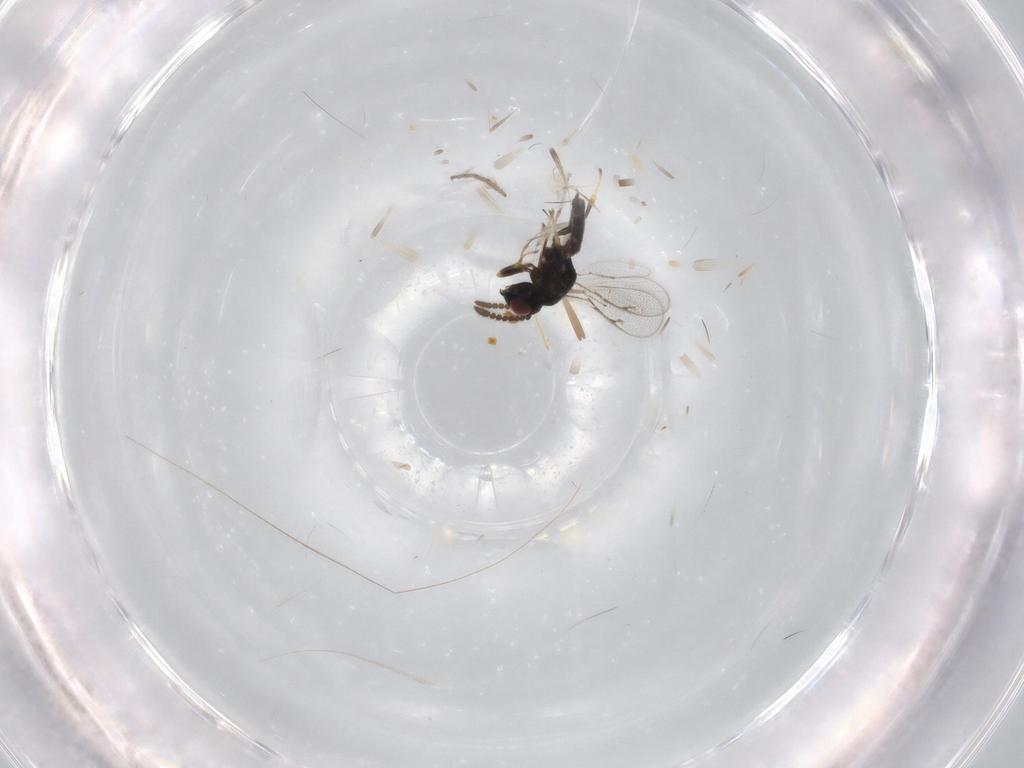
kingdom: Animalia
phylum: Arthropoda
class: Insecta
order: Hymenoptera
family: Pteromalidae
